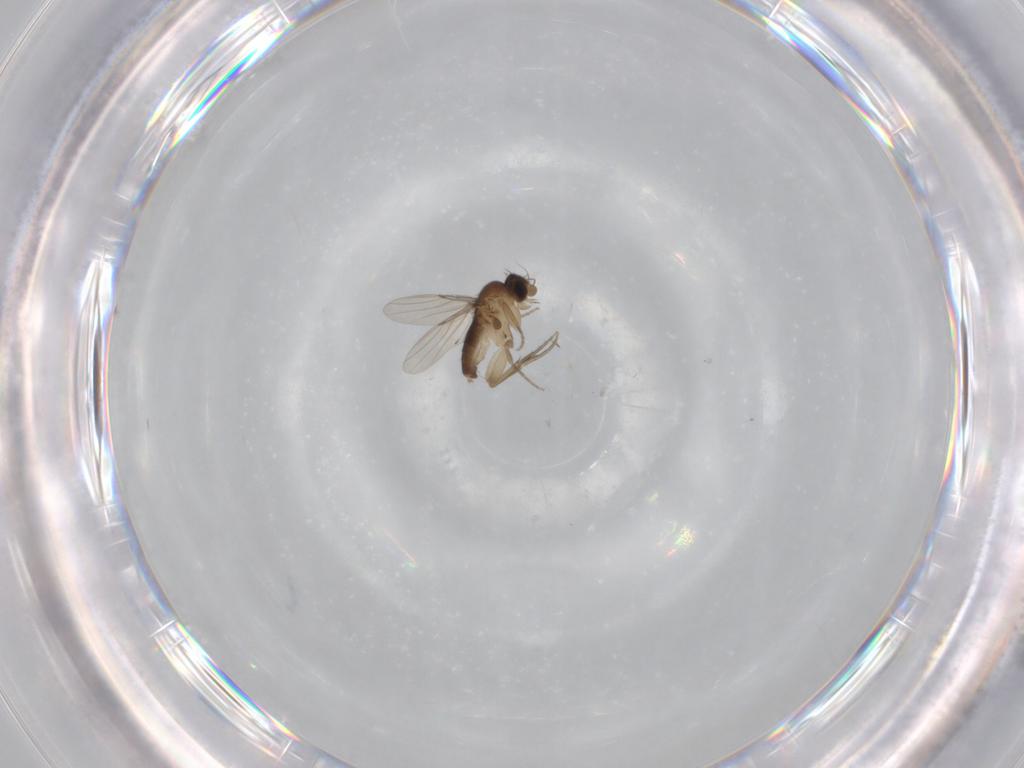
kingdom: Animalia
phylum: Arthropoda
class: Insecta
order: Diptera
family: Phoridae
